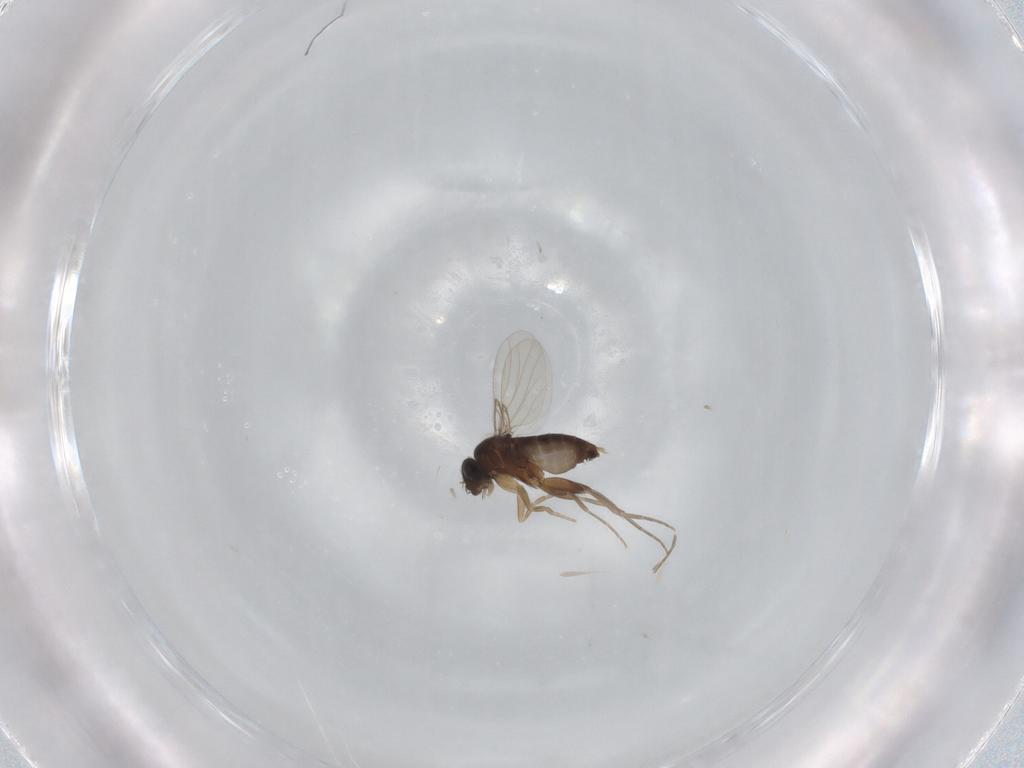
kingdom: Animalia
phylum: Arthropoda
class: Insecta
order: Diptera
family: Phoridae
